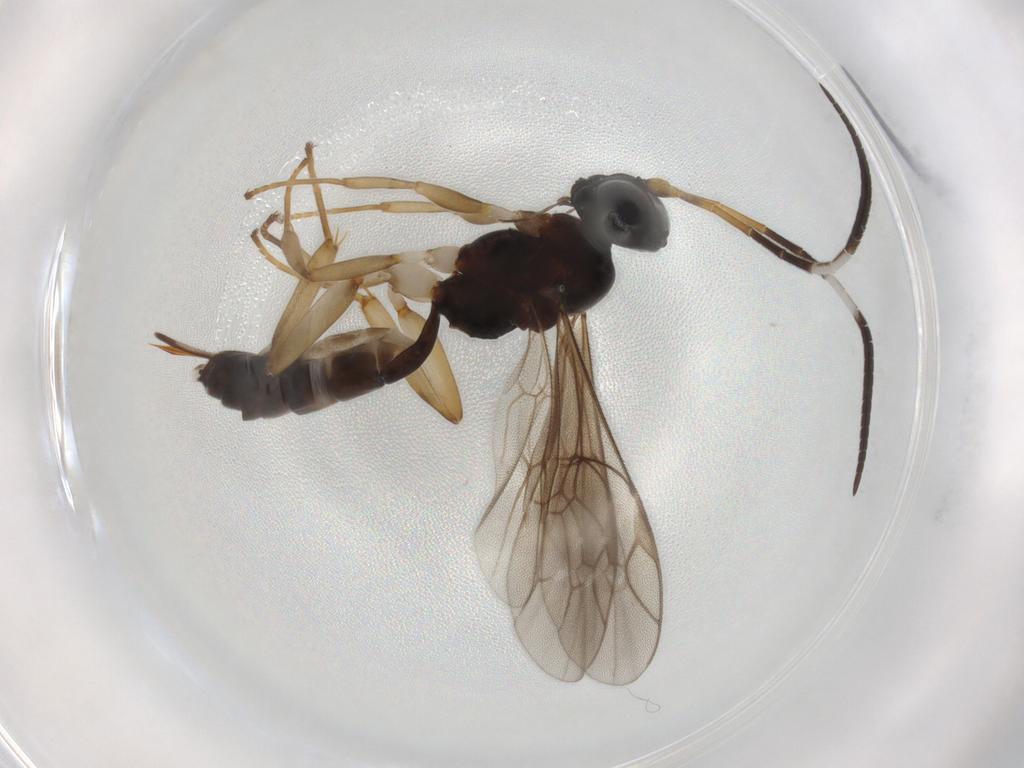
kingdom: Animalia
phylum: Arthropoda
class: Insecta
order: Hymenoptera
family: Ichneumonidae
